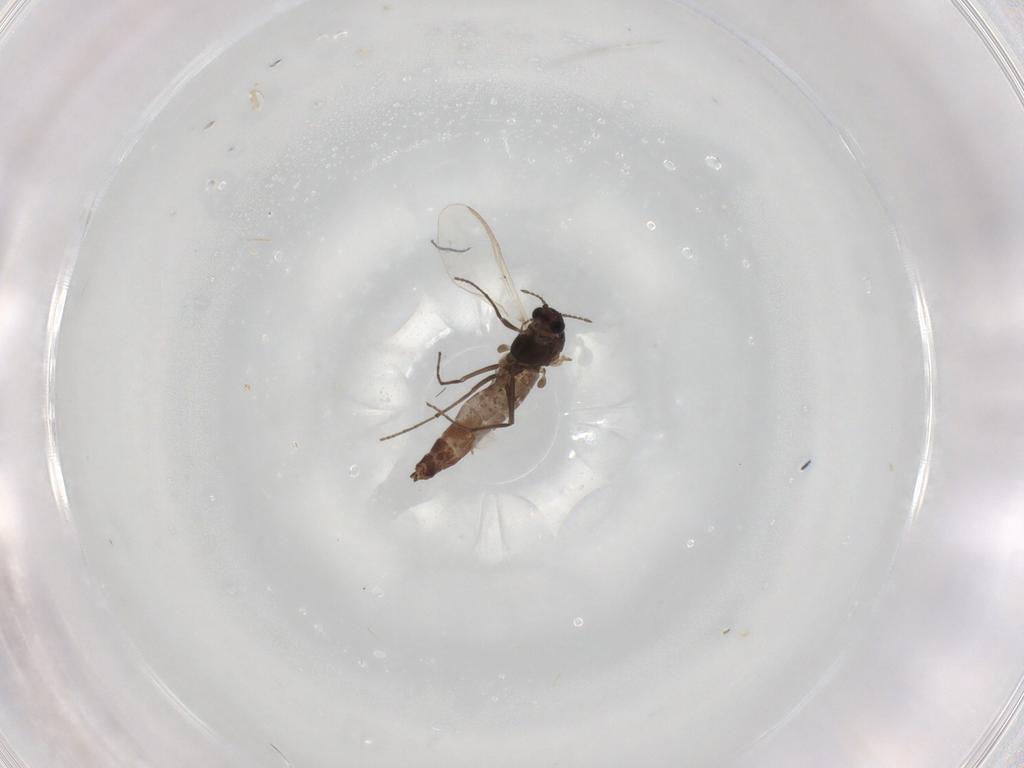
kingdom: Animalia
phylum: Arthropoda
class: Insecta
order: Diptera
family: Chironomidae
